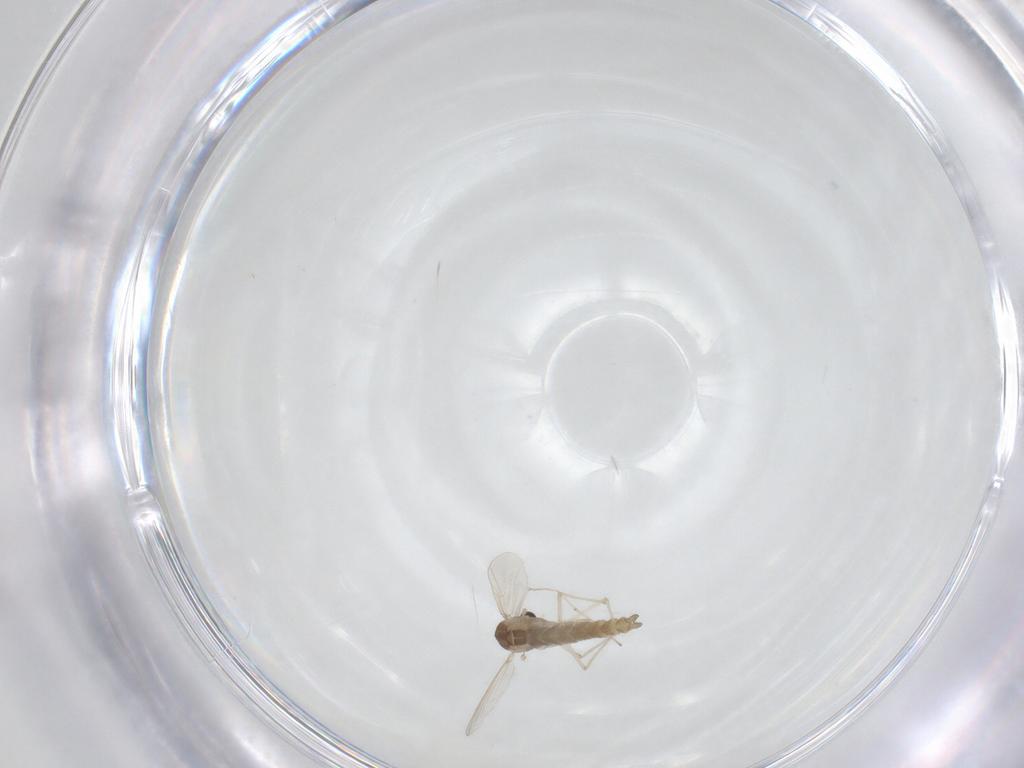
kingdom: Animalia
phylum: Arthropoda
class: Insecta
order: Diptera
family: Chironomidae
